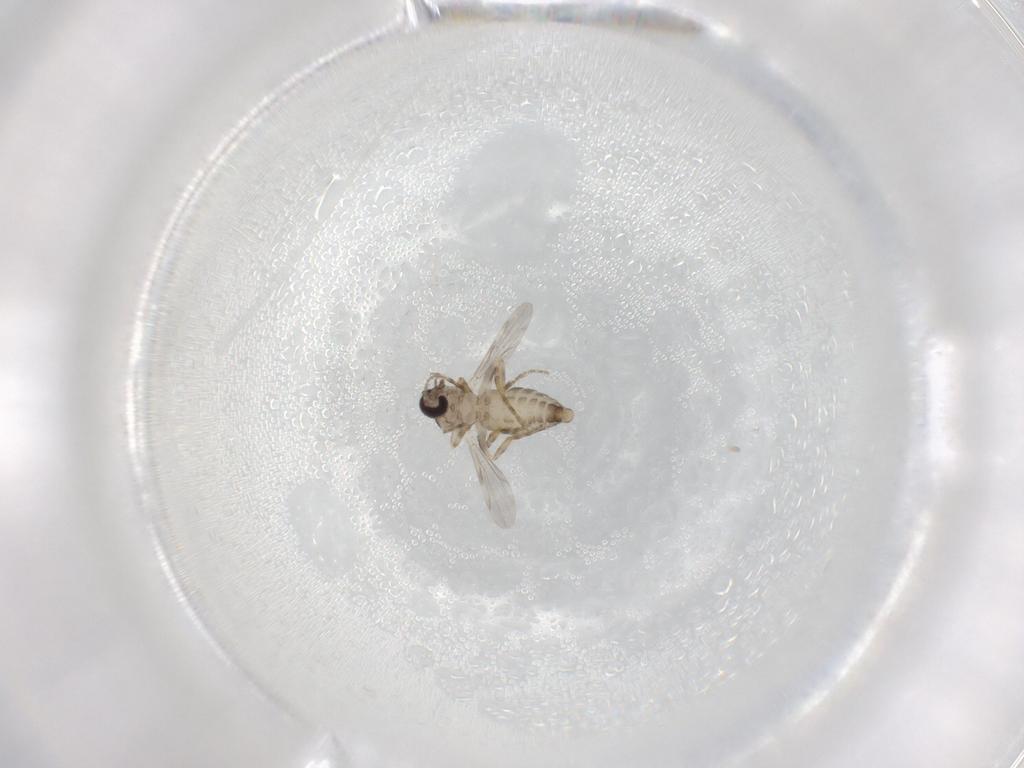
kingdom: Animalia
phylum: Arthropoda
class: Insecta
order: Diptera
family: Ceratopogonidae
